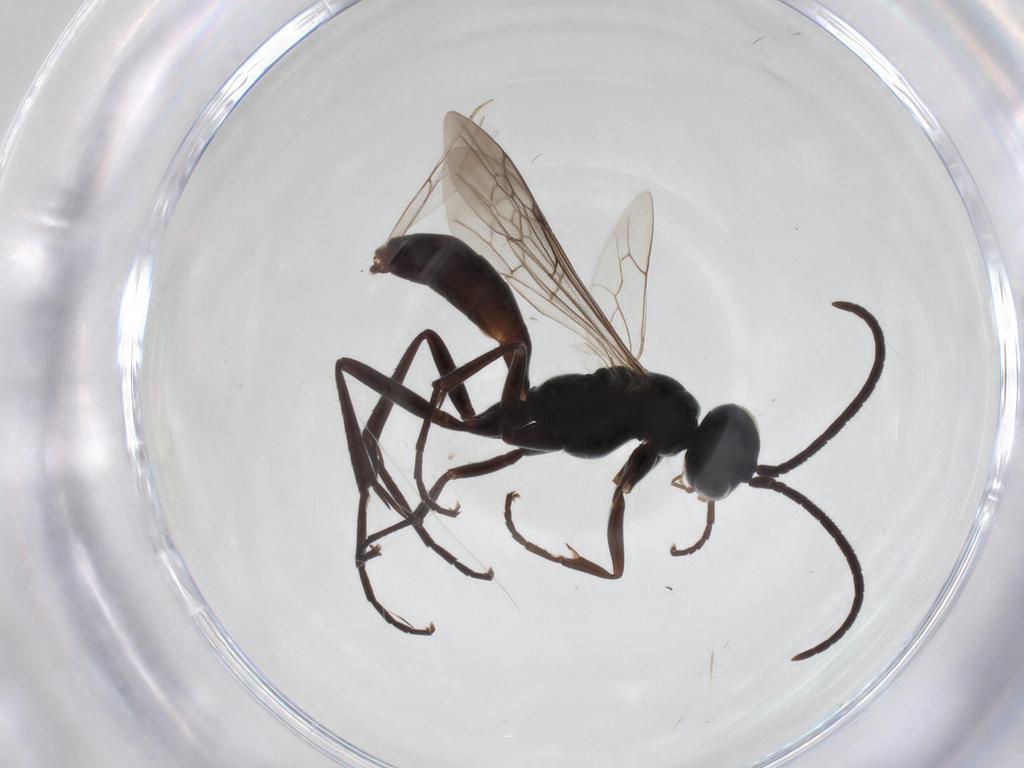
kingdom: Animalia
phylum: Arthropoda
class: Insecta
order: Hymenoptera
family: Pompilidae
